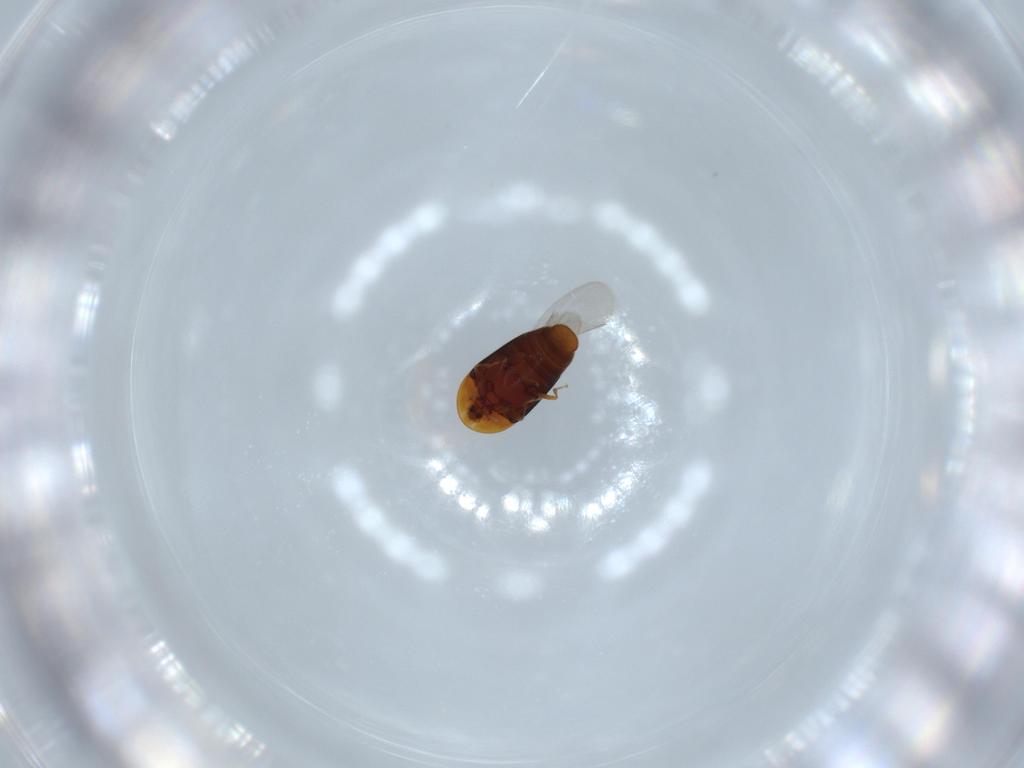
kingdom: Animalia
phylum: Arthropoda
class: Insecta
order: Coleoptera
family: Corylophidae
